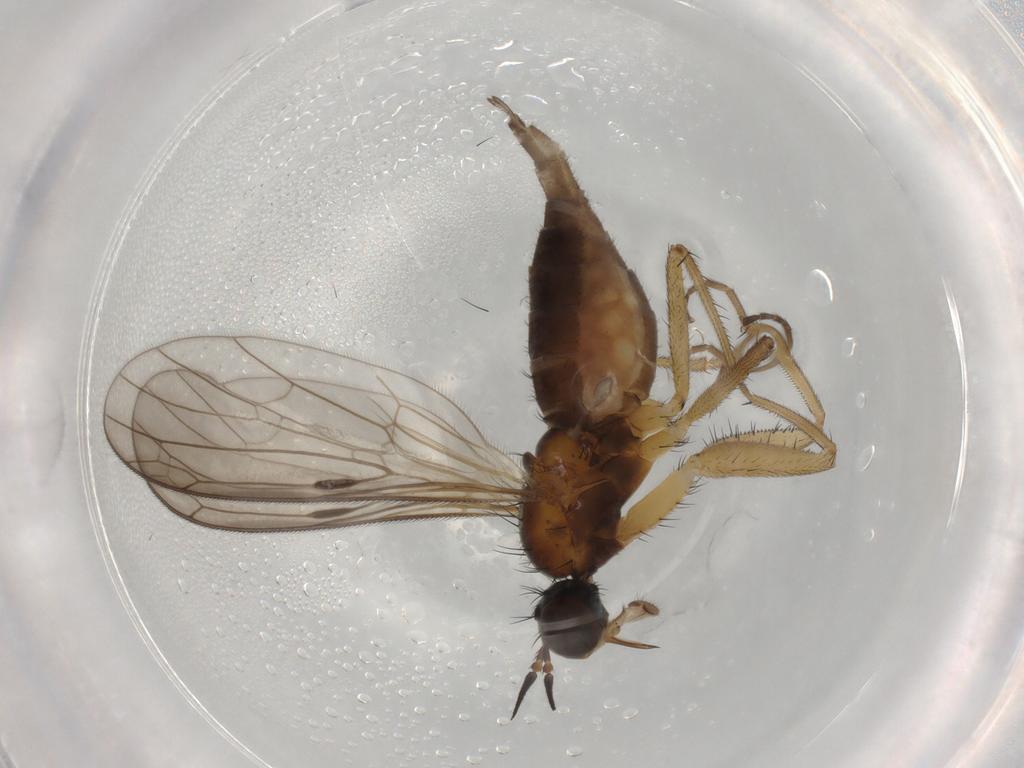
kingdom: Animalia
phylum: Arthropoda
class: Insecta
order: Diptera
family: Empididae
